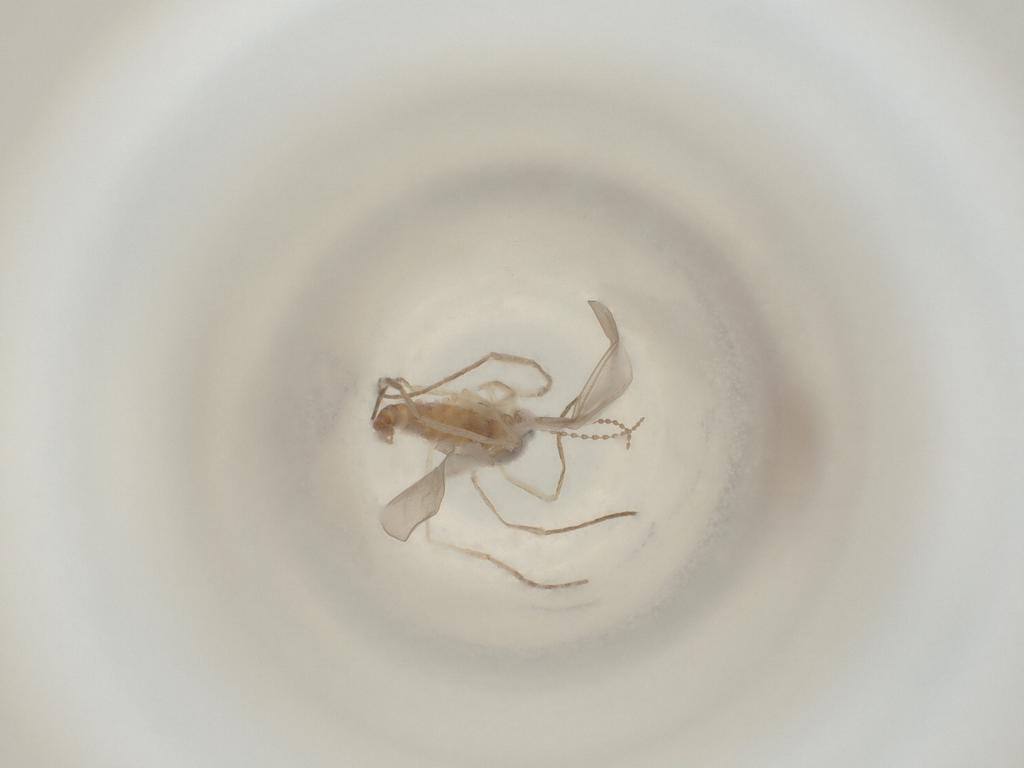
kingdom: Animalia
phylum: Arthropoda
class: Insecta
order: Diptera
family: Cecidomyiidae
